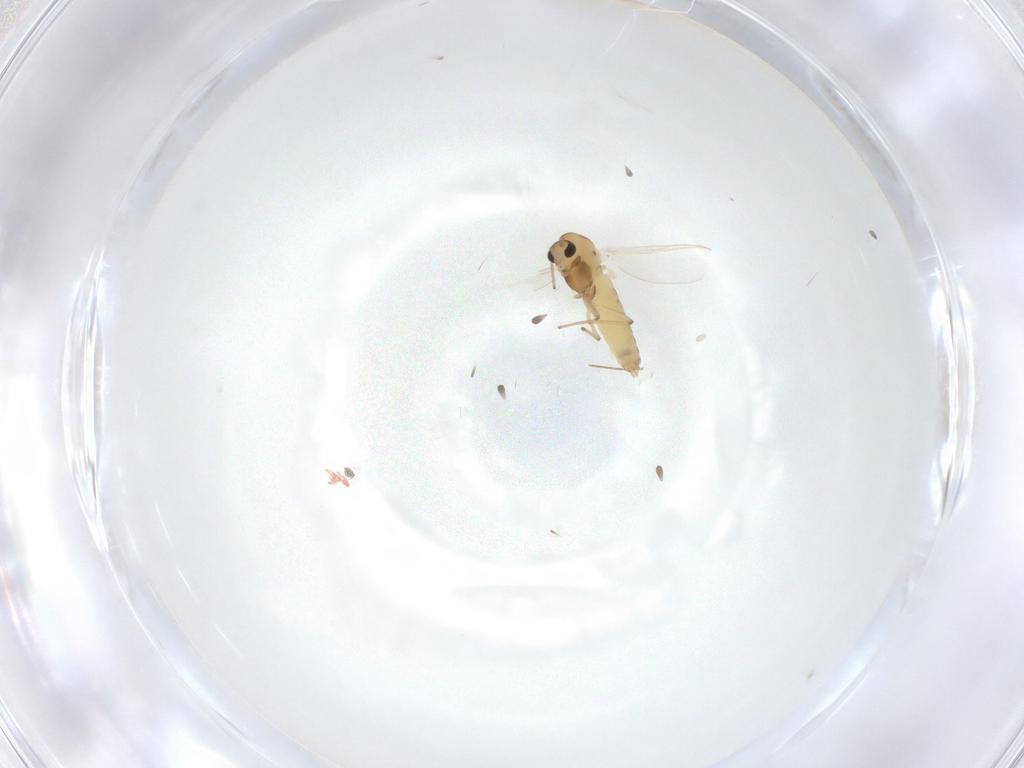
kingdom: Animalia
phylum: Arthropoda
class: Insecta
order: Diptera
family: Chironomidae
